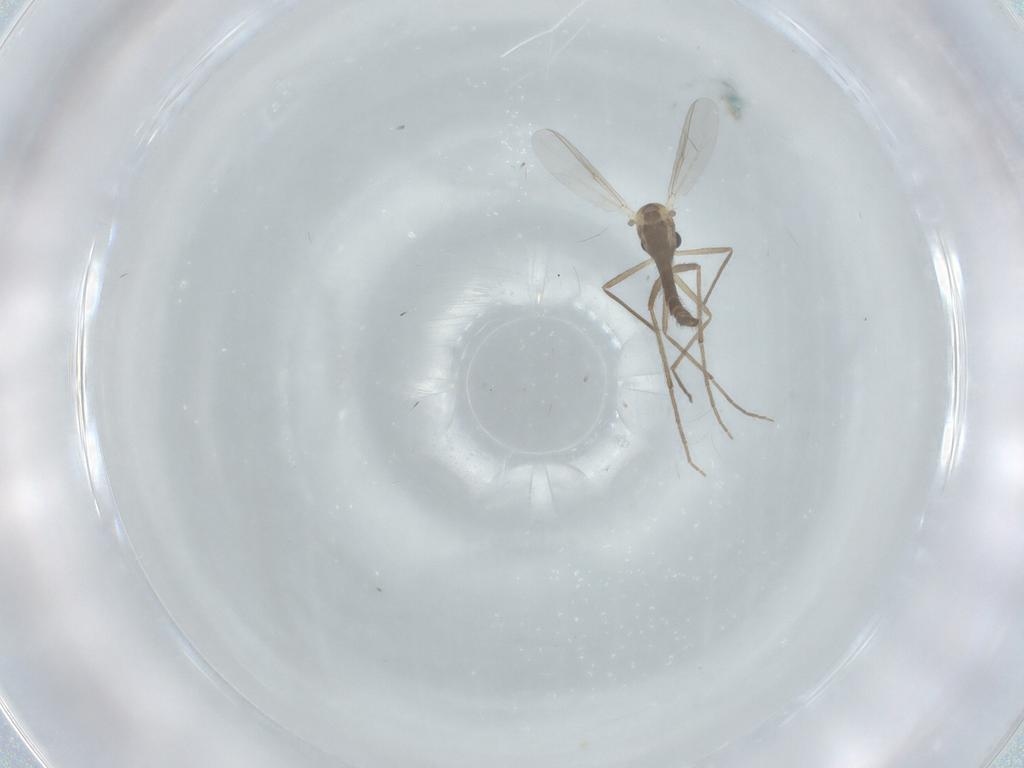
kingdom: Animalia
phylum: Arthropoda
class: Insecta
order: Diptera
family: Chironomidae
